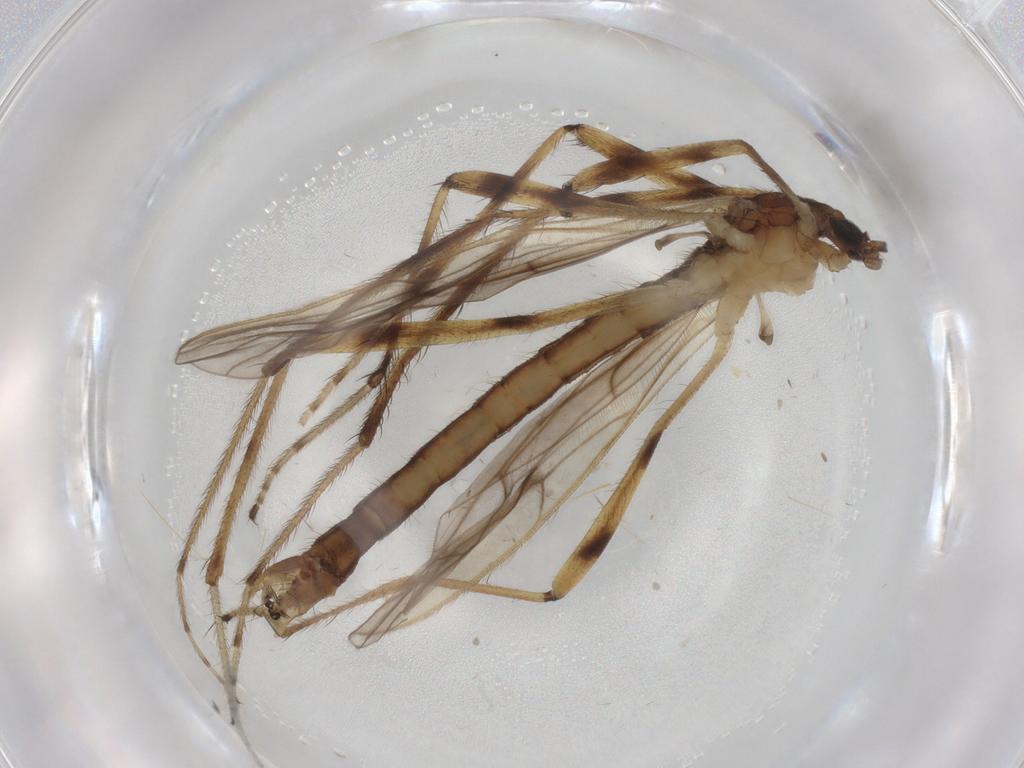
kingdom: Animalia
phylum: Arthropoda
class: Insecta
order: Diptera
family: Limoniidae
